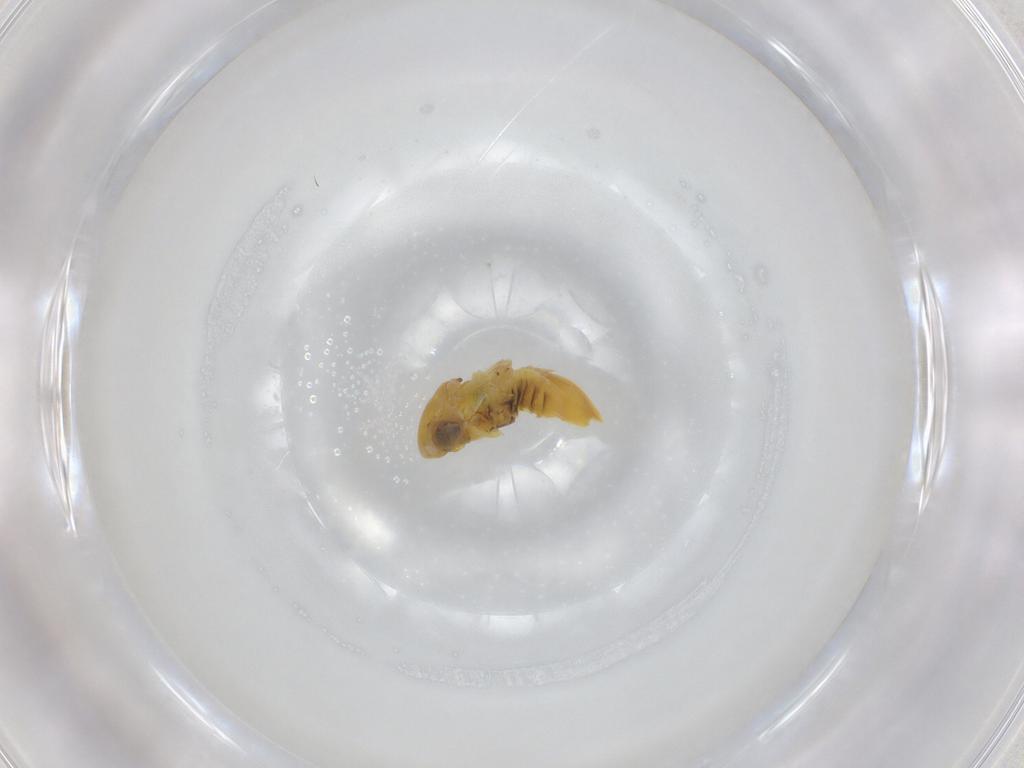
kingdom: Animalia
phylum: Arthropoda
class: Insecta
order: Hemiptera
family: Cicadellidae
